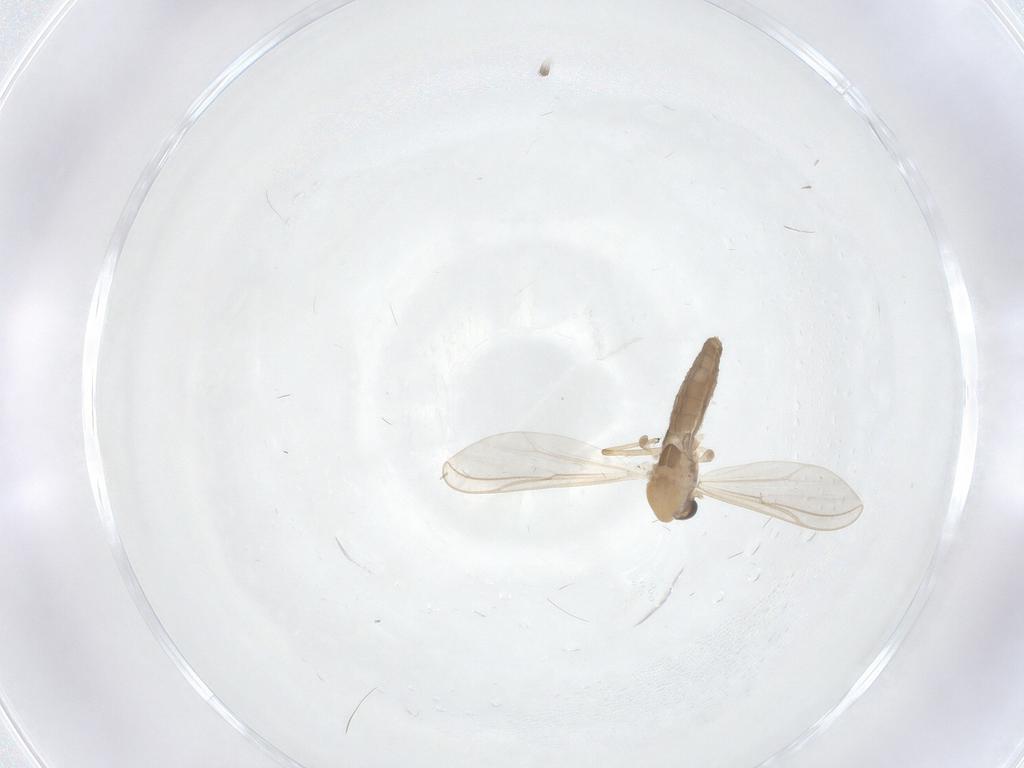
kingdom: Animalia
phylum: Arthropoda
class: Insecta
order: Diptera
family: Chironomidae
